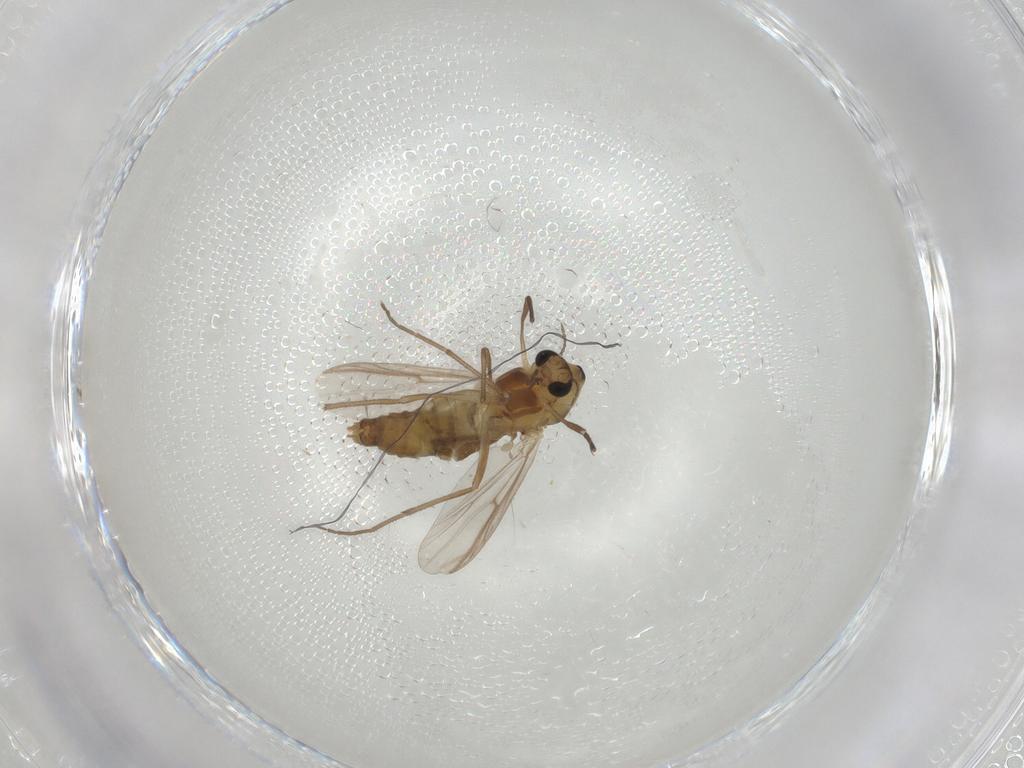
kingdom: Animalia
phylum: Arthropoda
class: Insecta
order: Diptera
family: Chironomidae
